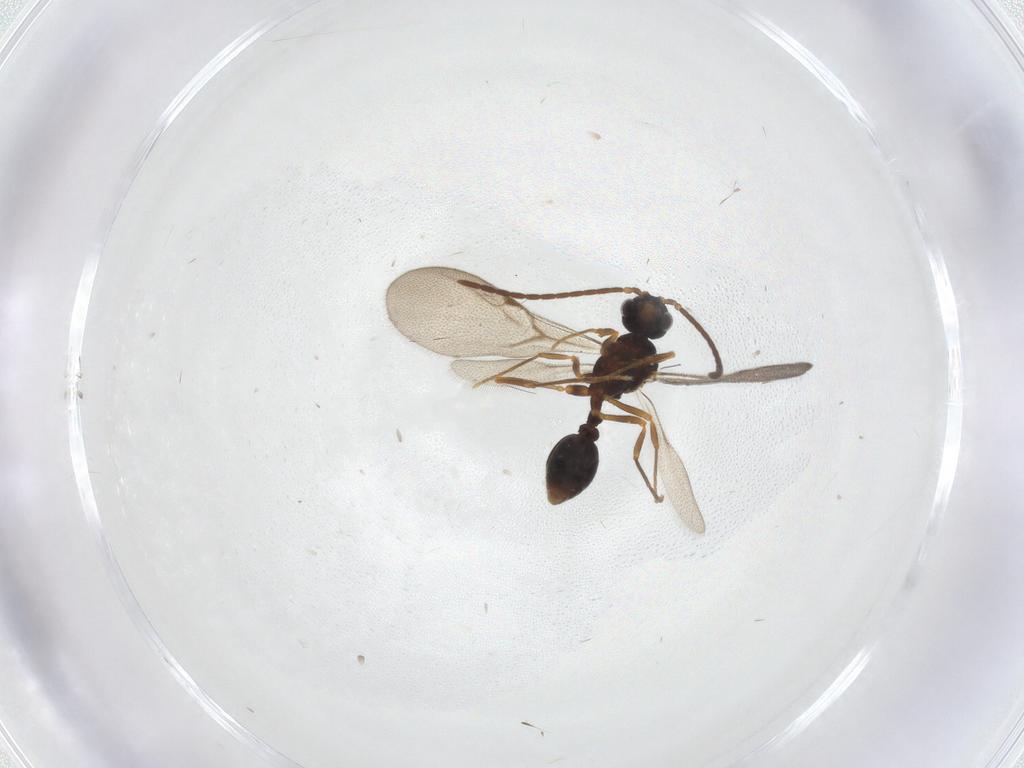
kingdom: Animalia
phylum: Arthropoda
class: Insecta
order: Hymenoptera
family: Formicidae
